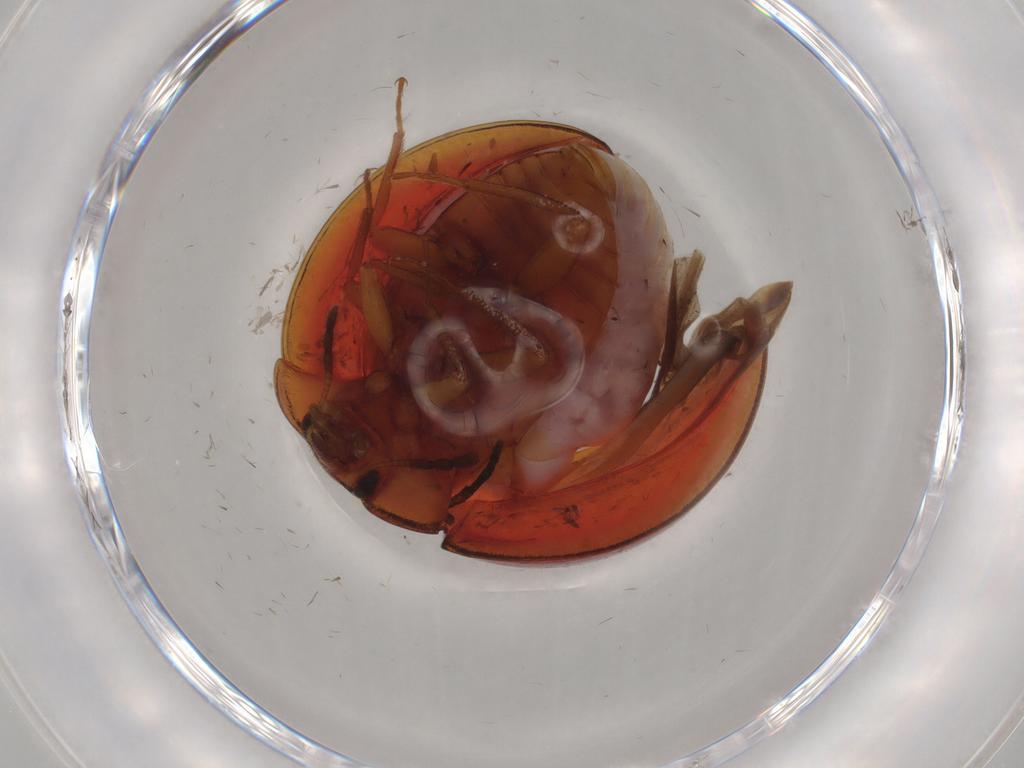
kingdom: Animalia
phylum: Arthropoda
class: Insecta
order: Coleoptera
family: Anamorphidae
